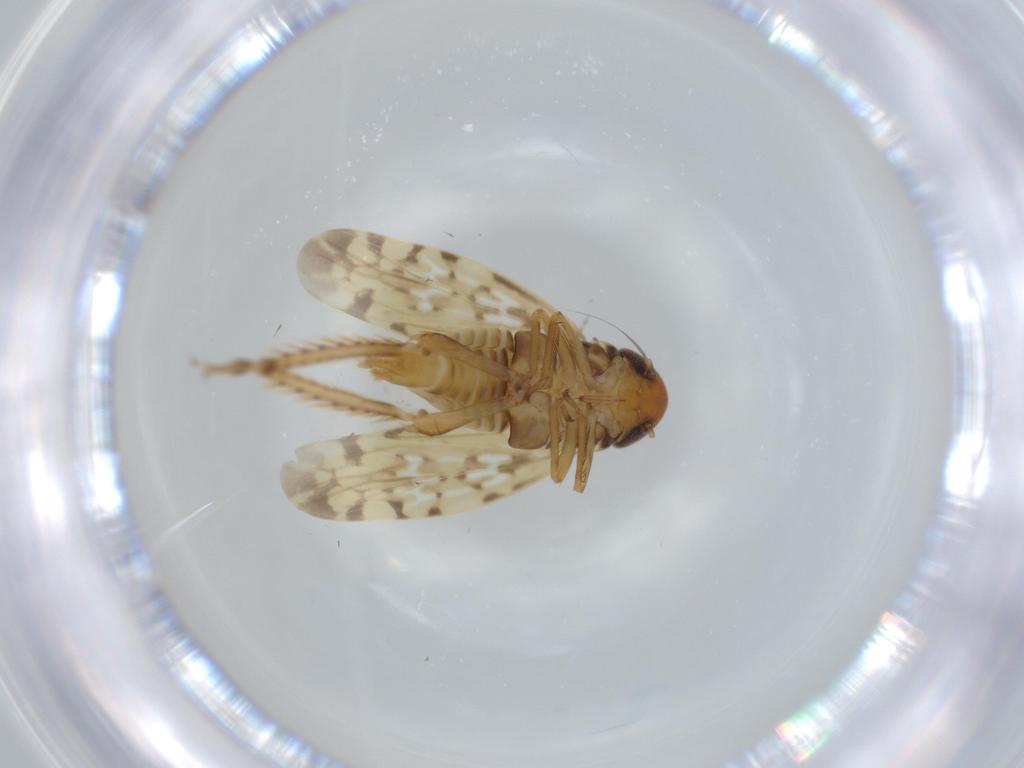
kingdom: Animalia
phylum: Arthropoda
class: Insecta
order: Hemiptera
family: Cicadellidae
